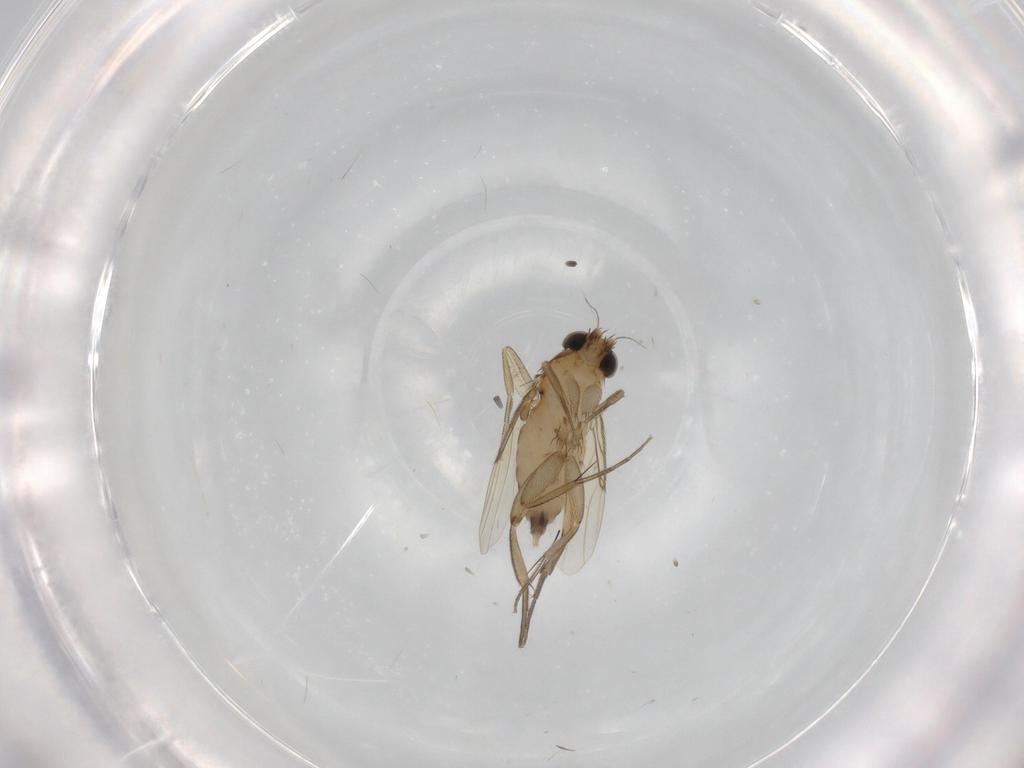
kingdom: Animalia
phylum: Arthropoda
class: Insecta
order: Diptera
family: Phoridae
